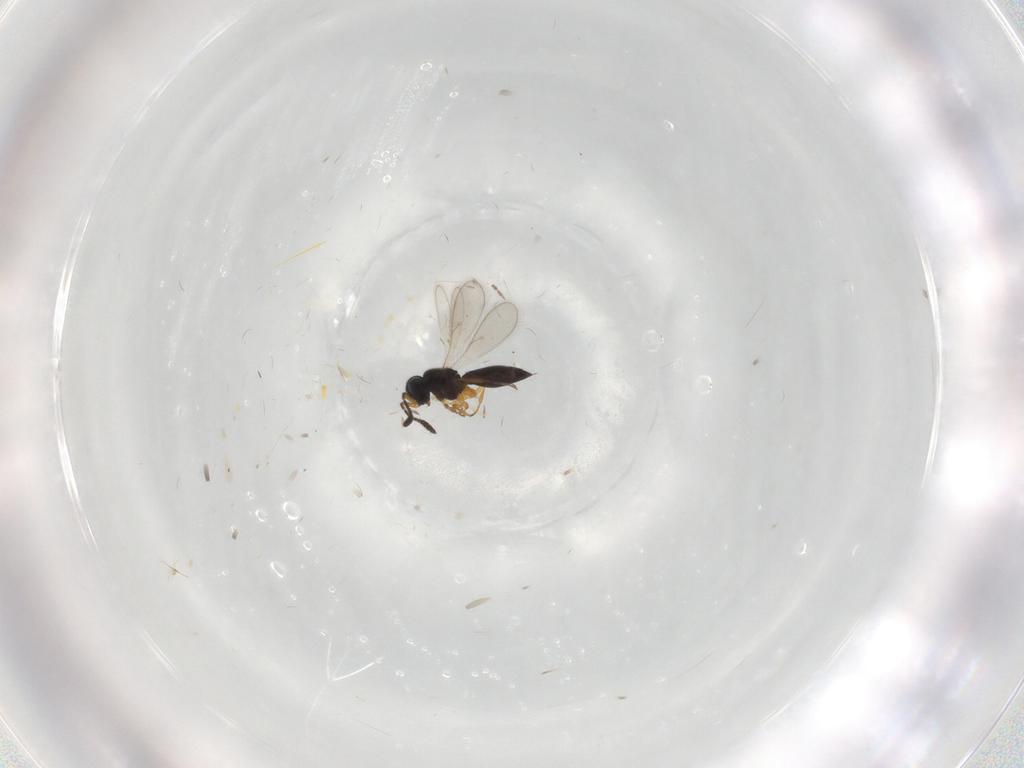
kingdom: Animalia
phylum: Arthropoda
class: Insecta
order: Hymenoptera
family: Scelionidae
